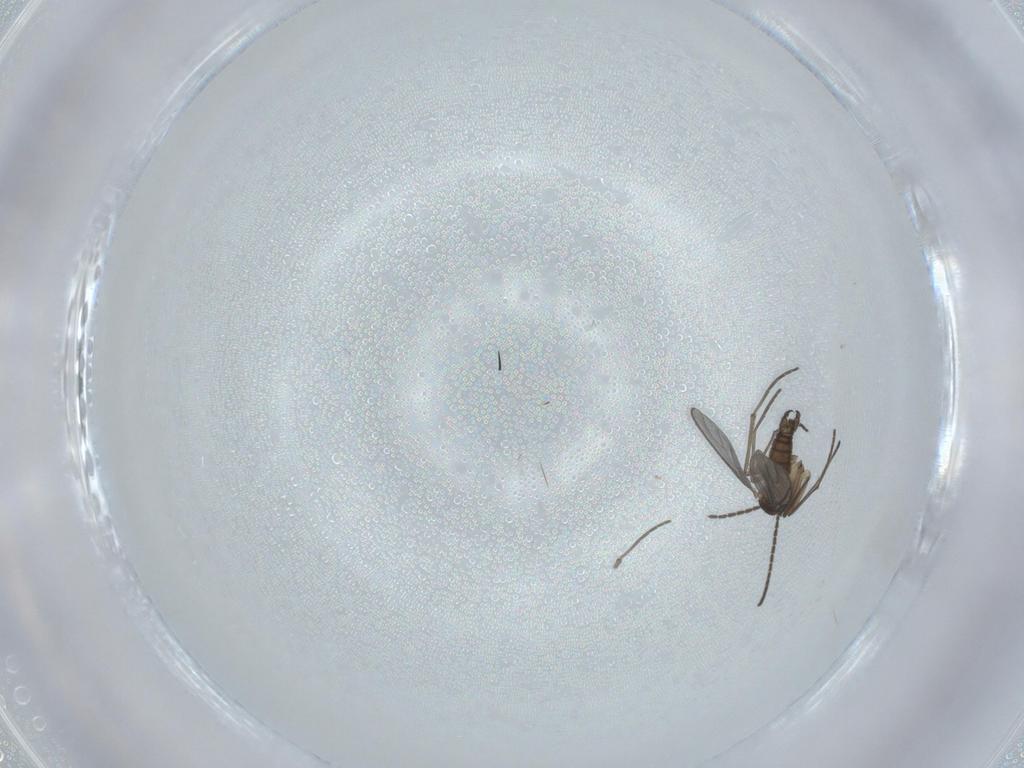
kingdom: Animalia
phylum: Arthropoda
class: Insecta
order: Diptera
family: Sciaridae
